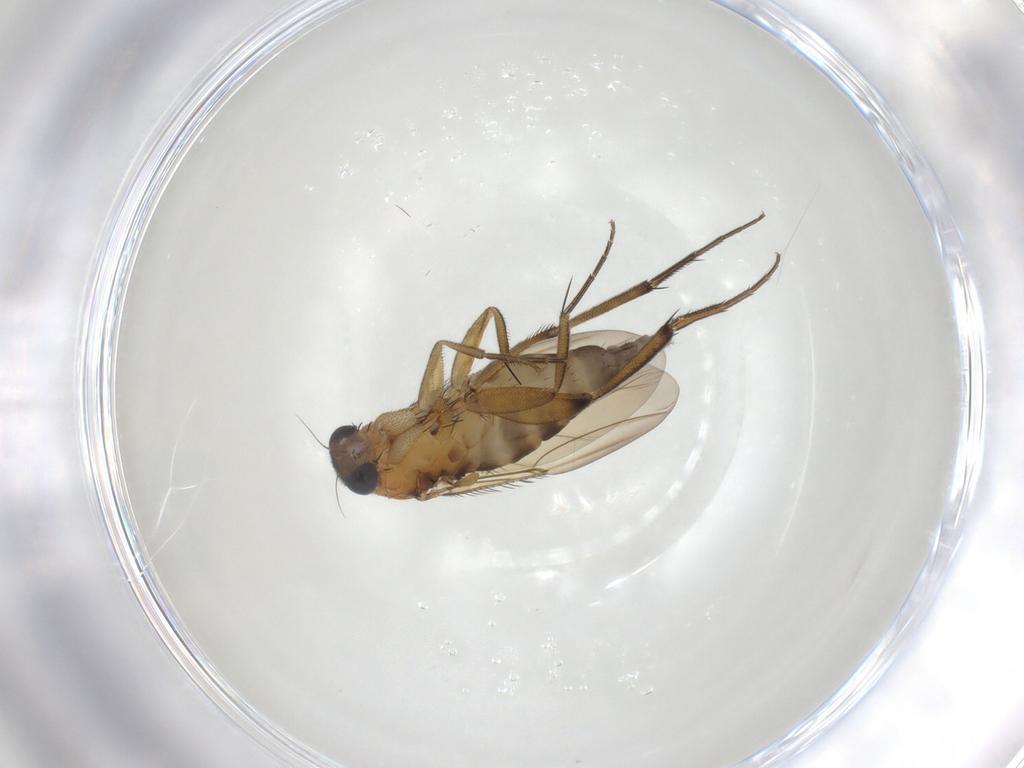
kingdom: Animalia
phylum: Arthropoda
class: Insecta
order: Diptera
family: Phoridae
